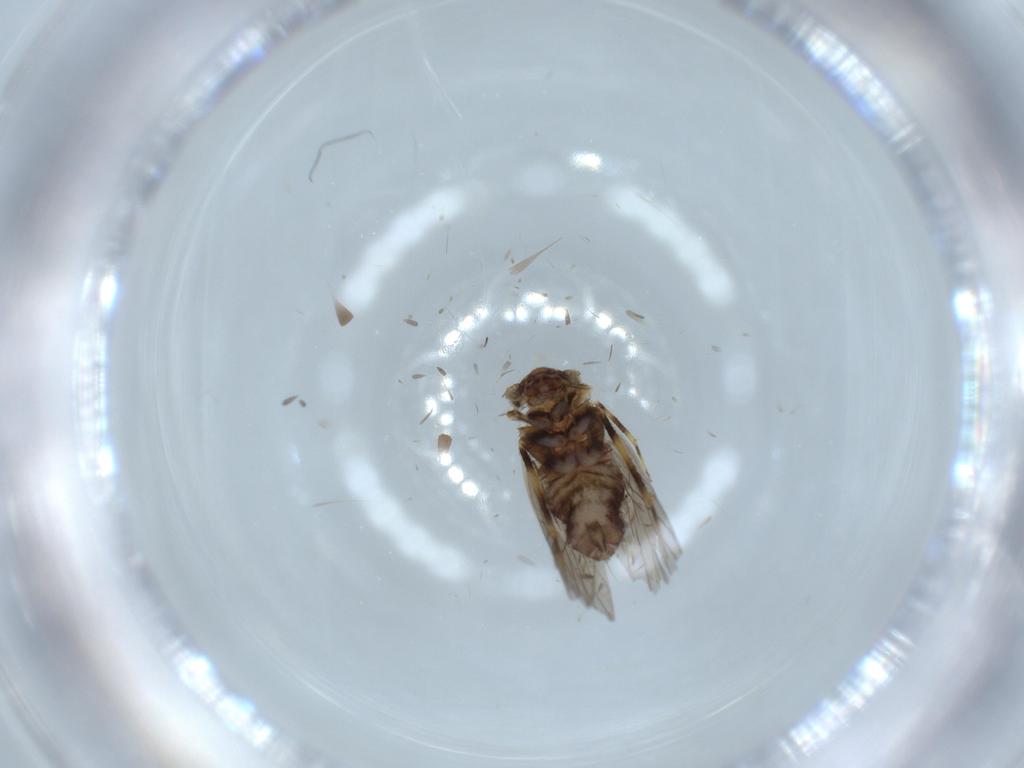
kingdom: Animalia
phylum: Arthropoda
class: Insecta
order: Psocodea
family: Lepidopsocidae
